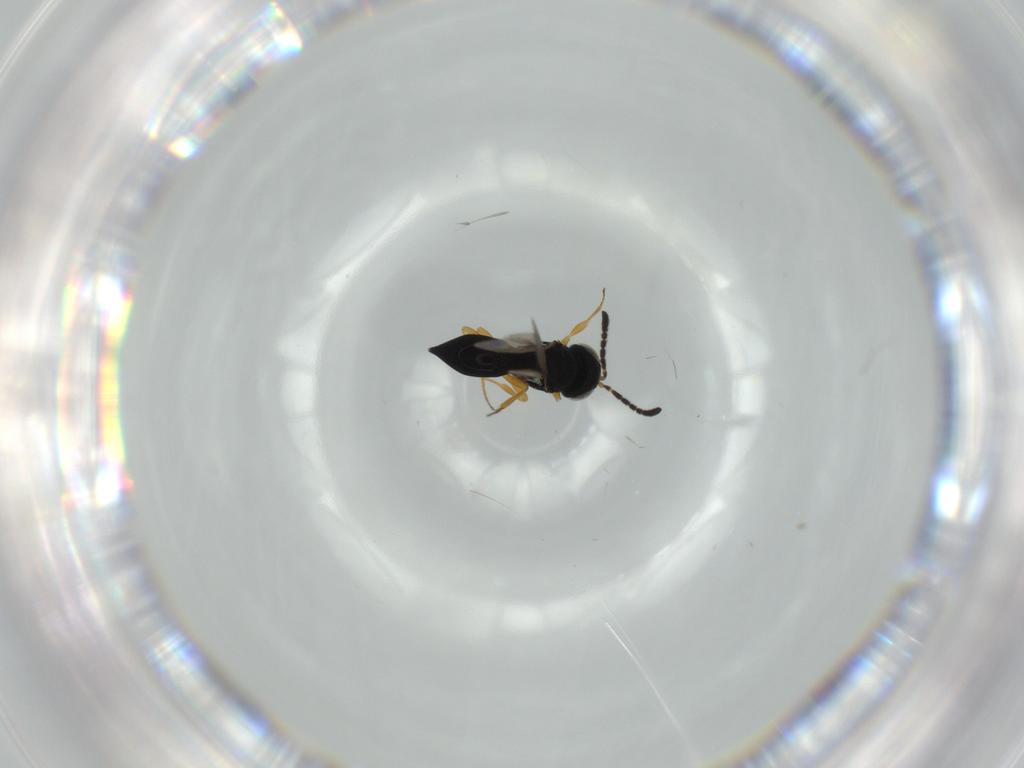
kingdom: Animalia
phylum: Arthropoda
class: Insecta
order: Hymenoptera
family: Scelionidae
